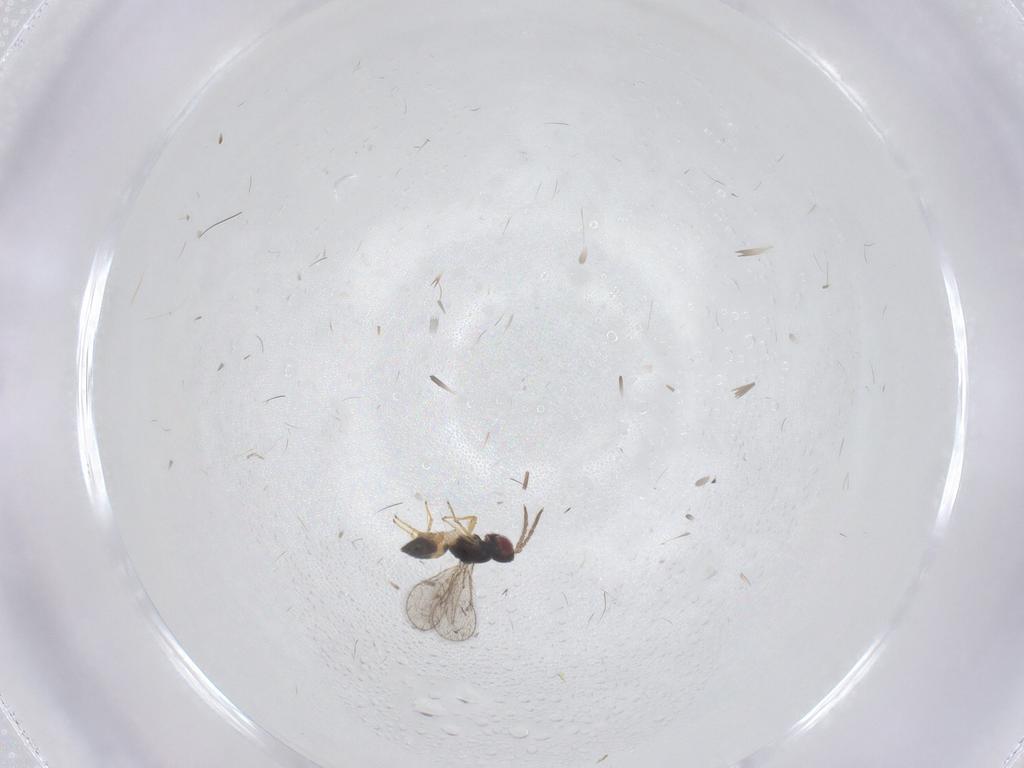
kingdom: Animalia
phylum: Arthropoda
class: Insecta
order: Hymenoptera
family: Eulophidae
